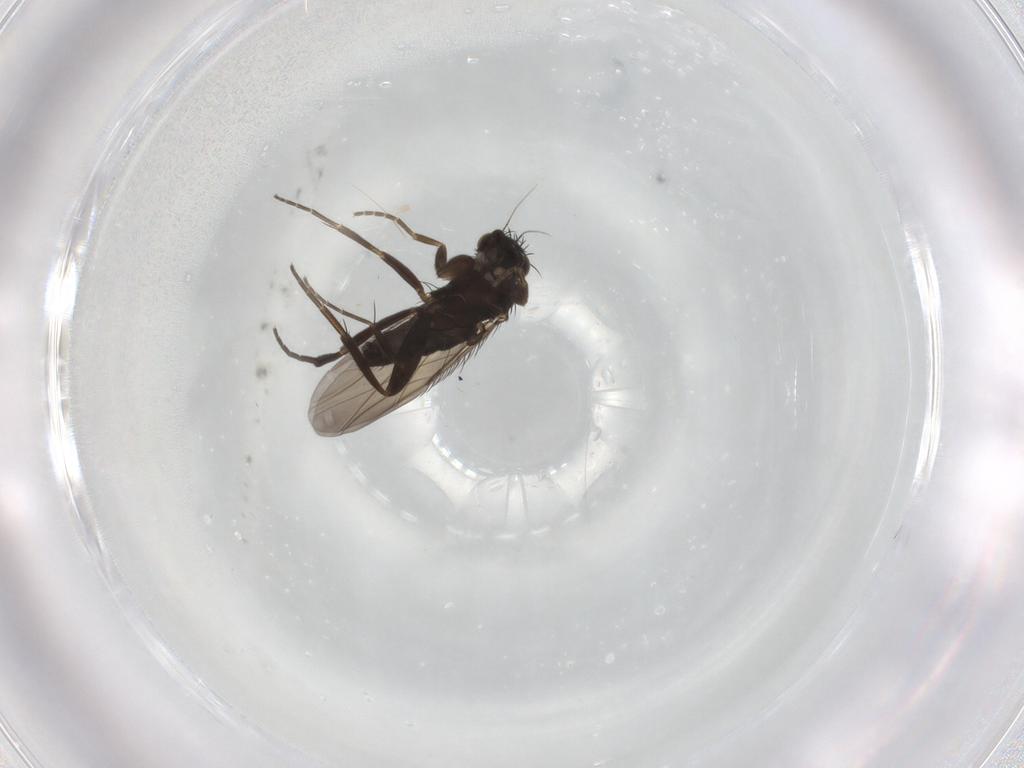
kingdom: Animalia
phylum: Arthropoda
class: Insecta
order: Diptera
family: Phoridae
